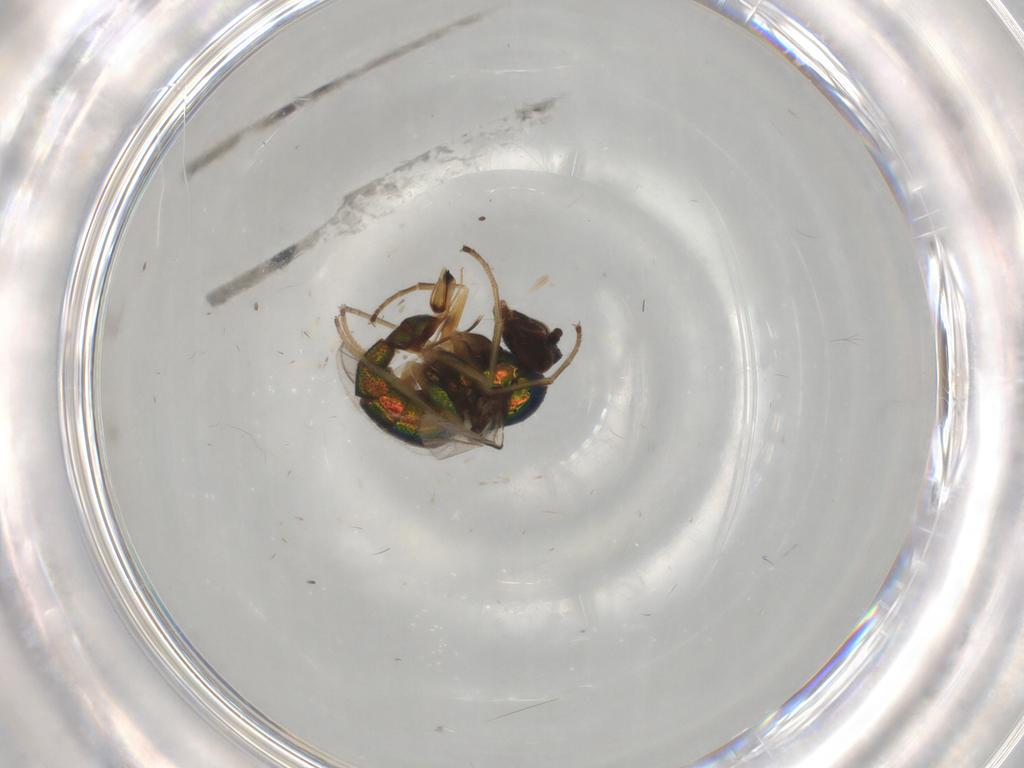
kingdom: Animalia
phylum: Arthropoda
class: Insecta
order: Diptera
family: Dolichopodidae
